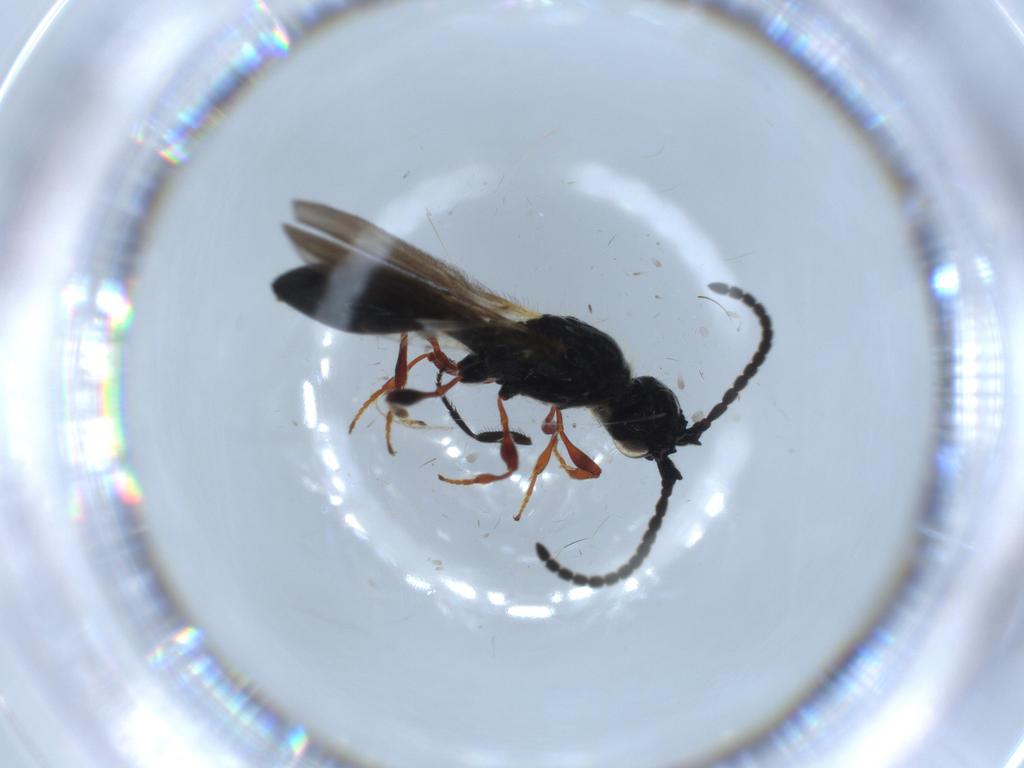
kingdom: Animalia
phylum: Arthropoda
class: Insecta
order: Hymenoptera
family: Diapriidae
